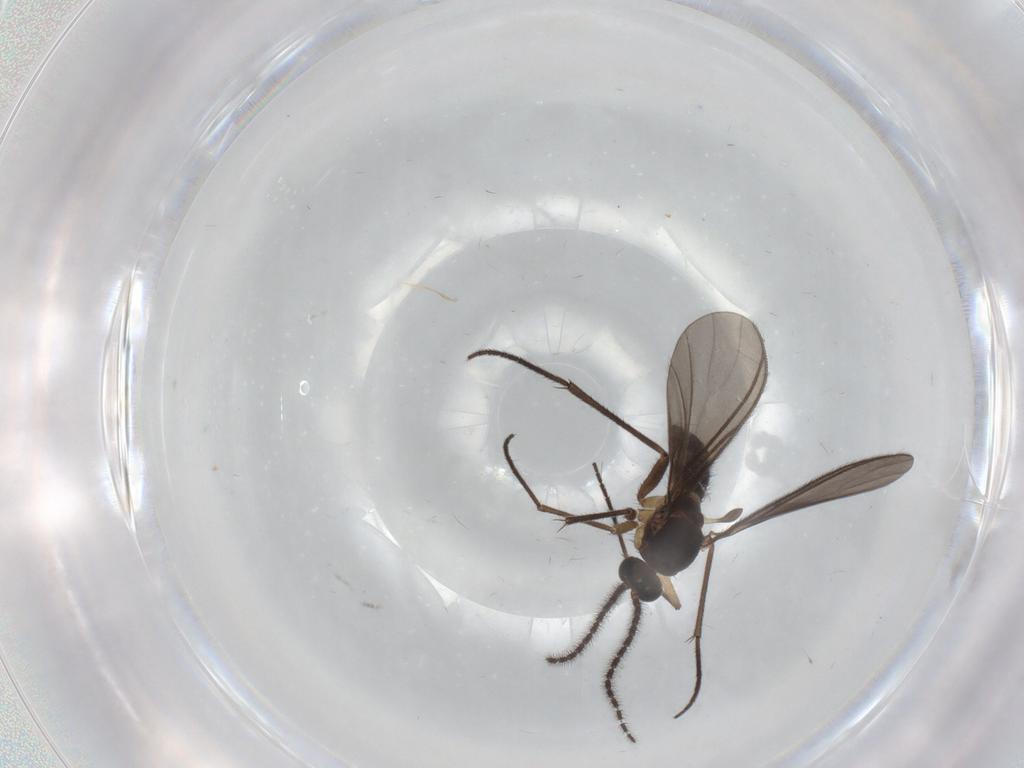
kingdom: Animalia
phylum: Arthropoda
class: Insecta
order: Diptera
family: Sciaridae
